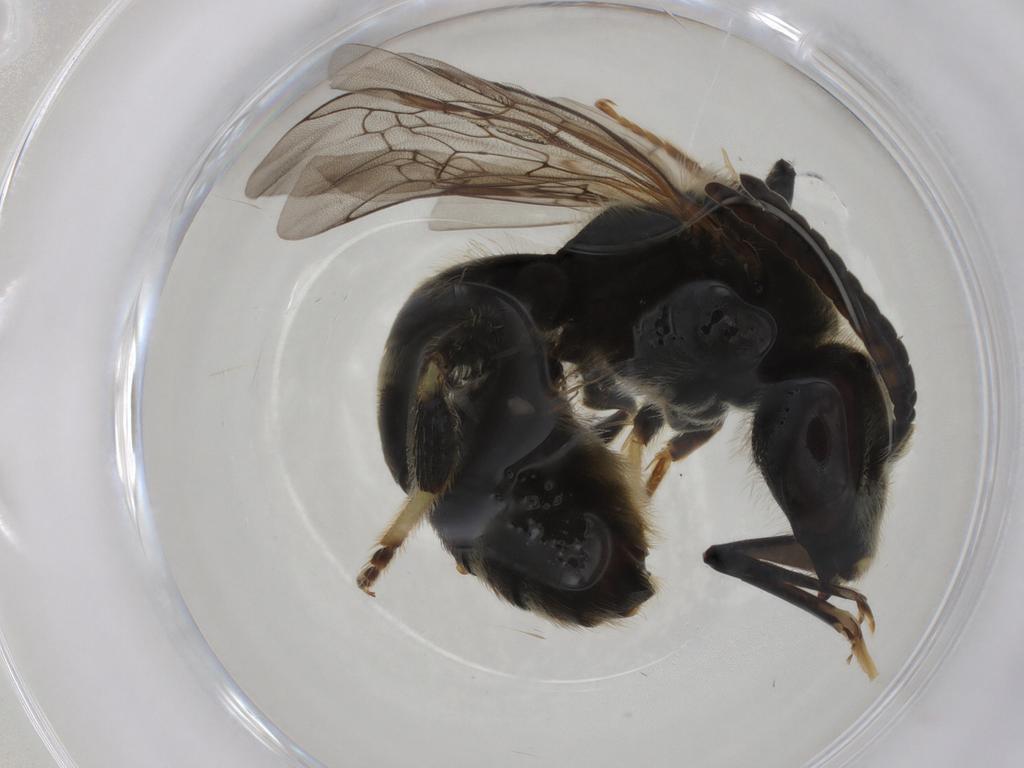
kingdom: Animalia
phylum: Arthropoda
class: Insecta
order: Hymenoptera
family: Scelionidae
